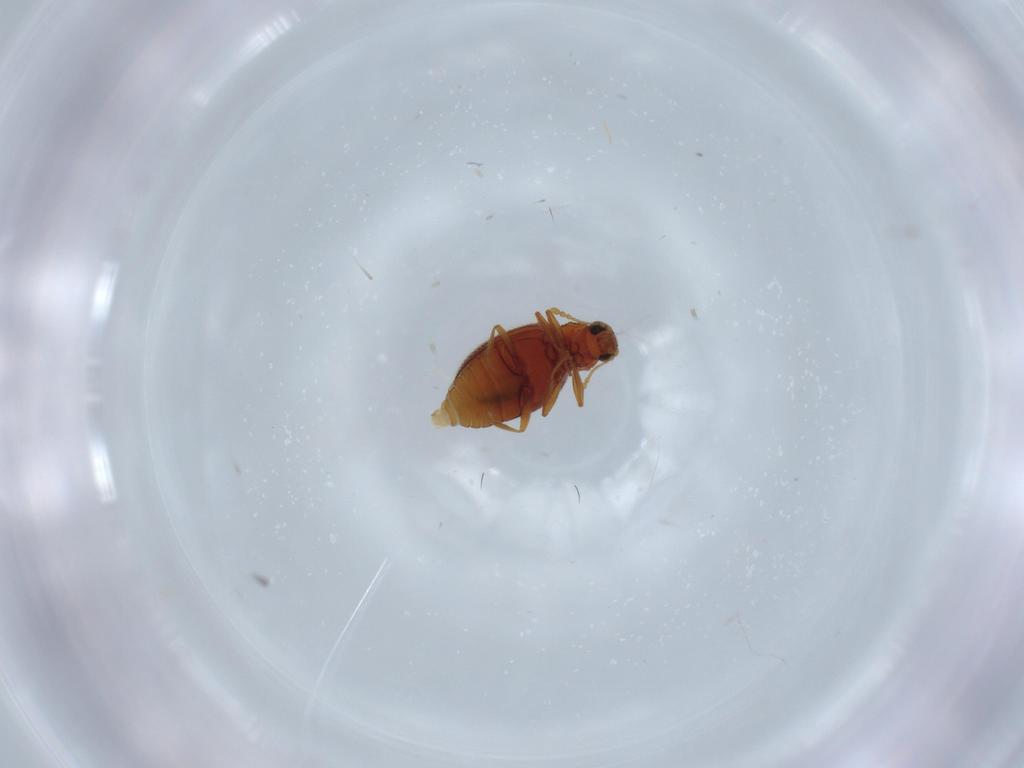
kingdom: Animalia
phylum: Arthropoda
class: Insecta
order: Coleoptera
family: Latridiidae
